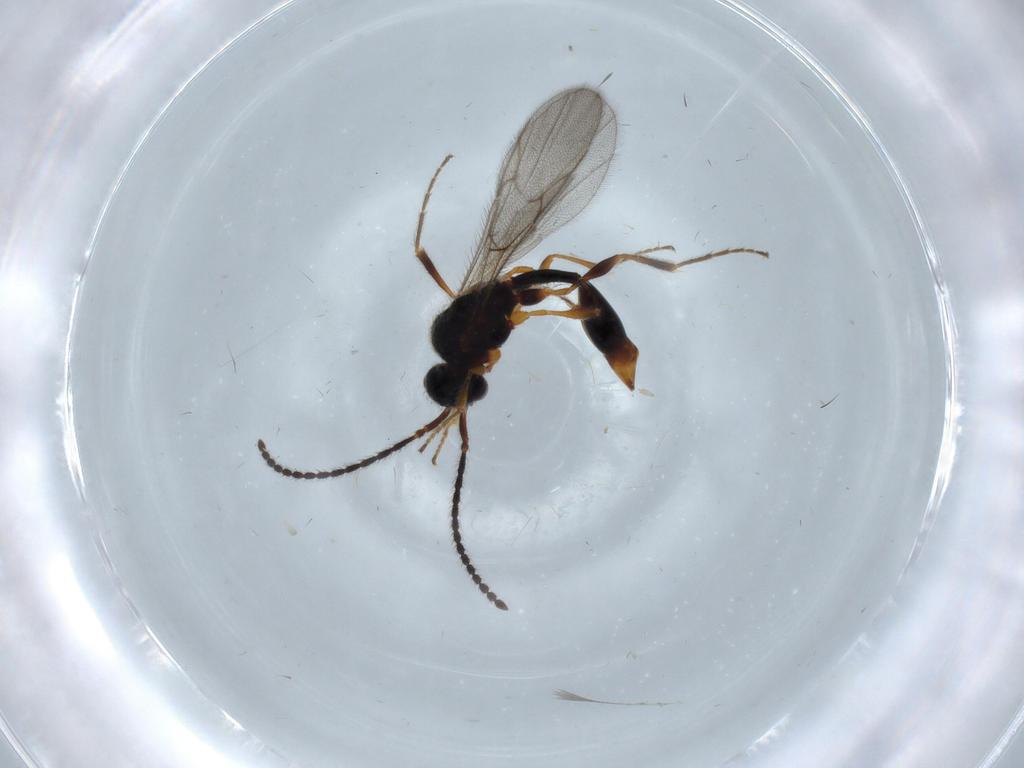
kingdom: Animalia
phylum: Arthropoda
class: Insecta
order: Hymenoptera
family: Diapriidae
